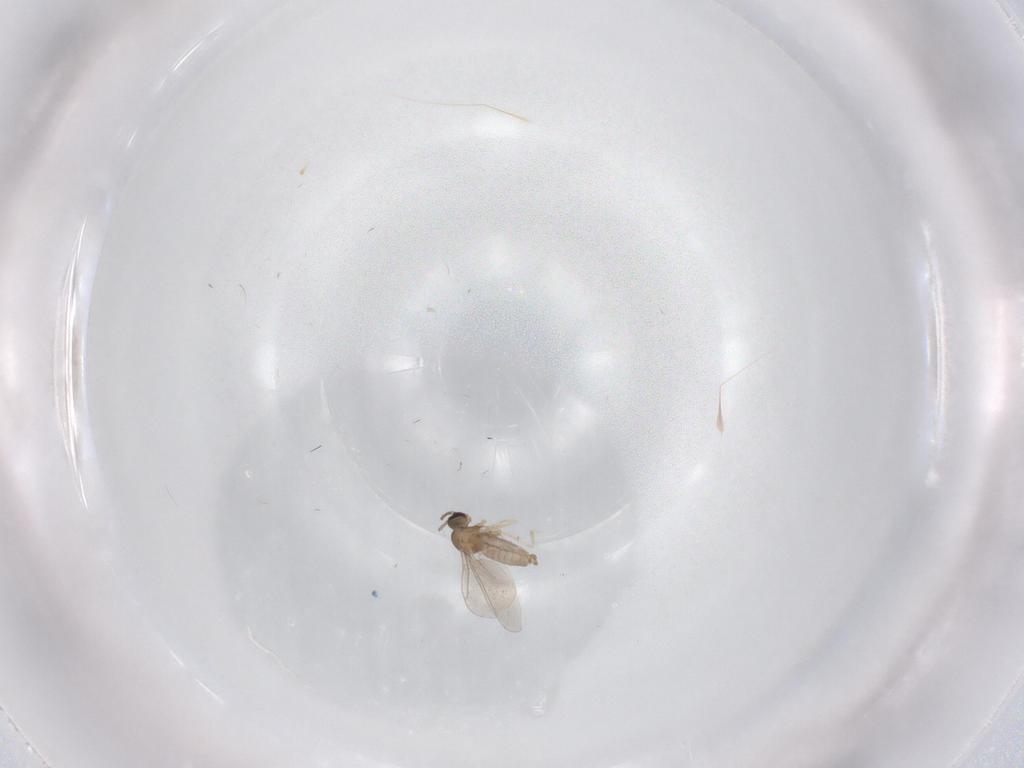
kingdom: Animalia
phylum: Arthropoda
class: Insecta
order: Diptera
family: Cecidomyiidae
